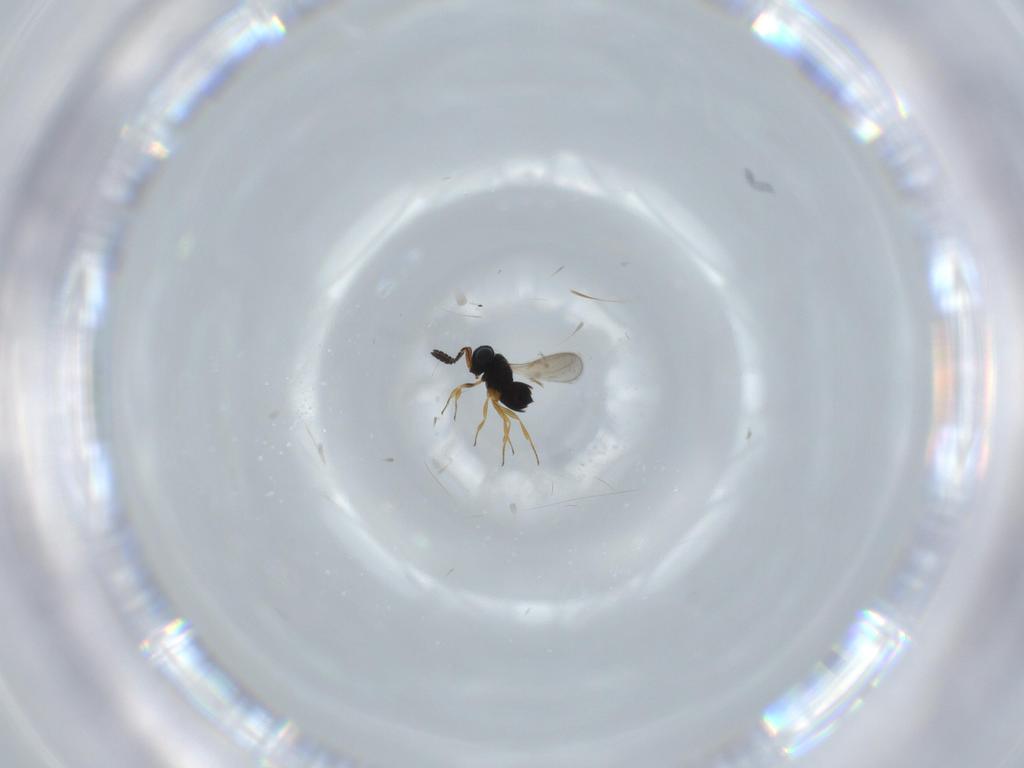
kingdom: Animalia
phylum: Arthropoda
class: Insecta
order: Hymenoptera
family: Scelionidae
